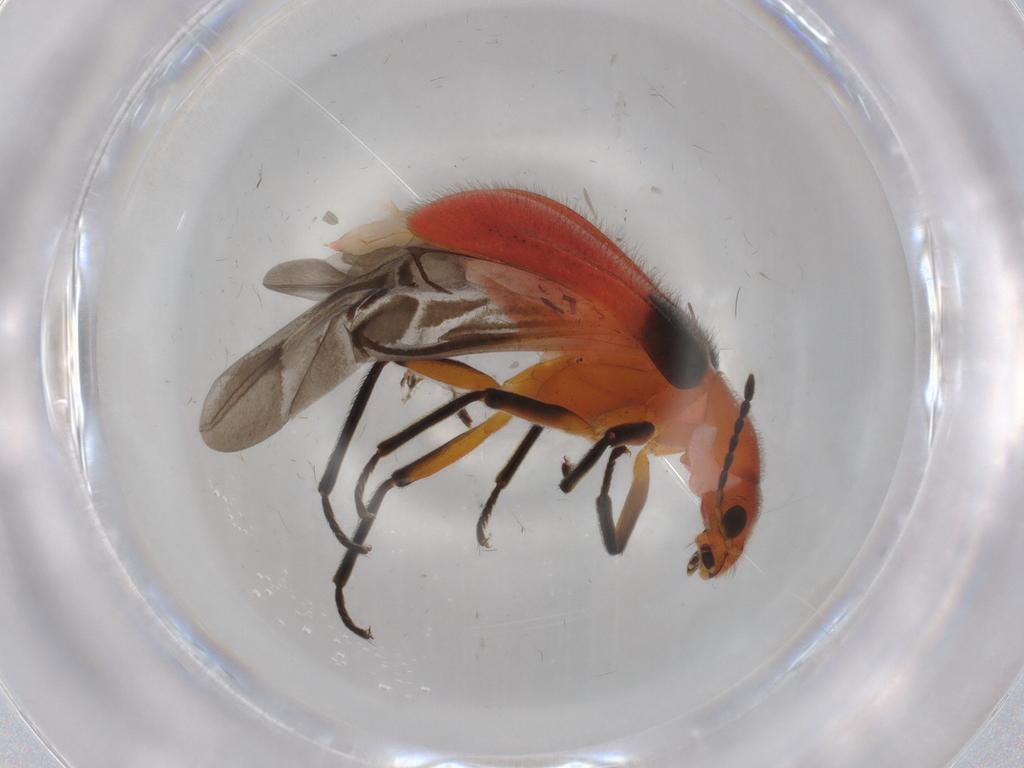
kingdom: Animalia
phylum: Arthropoda
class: Insecta
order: Coleoptera
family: Melyridae
